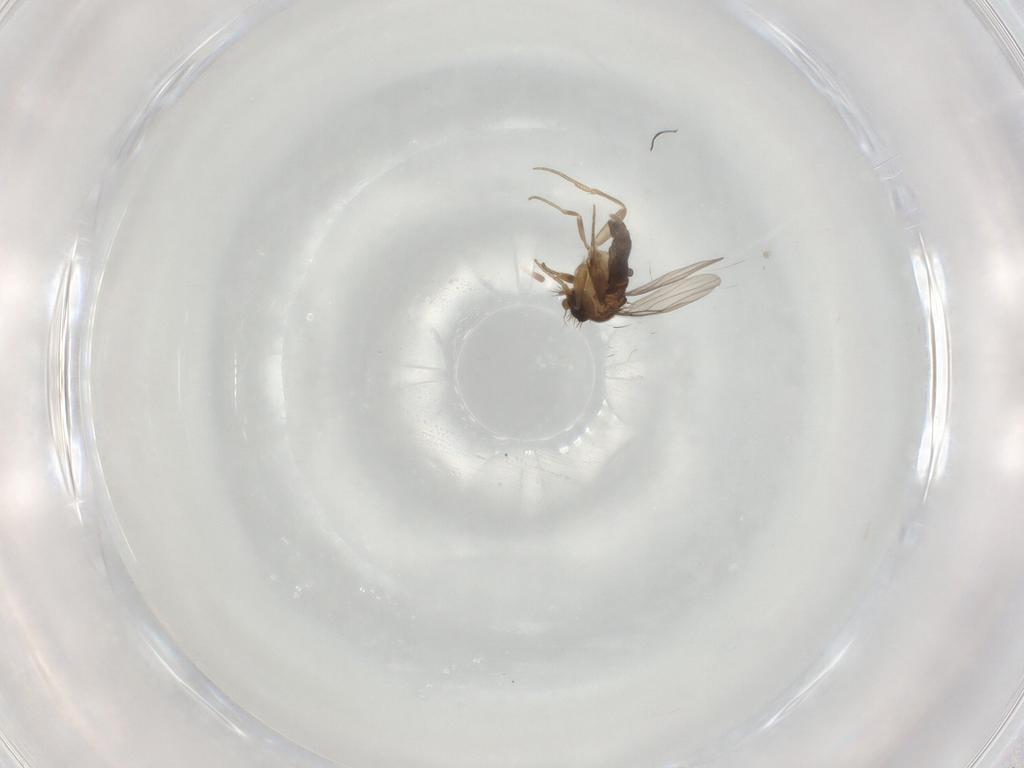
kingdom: Animalia
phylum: Arthropoda
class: Insecta
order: Diptera
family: Phoridae
